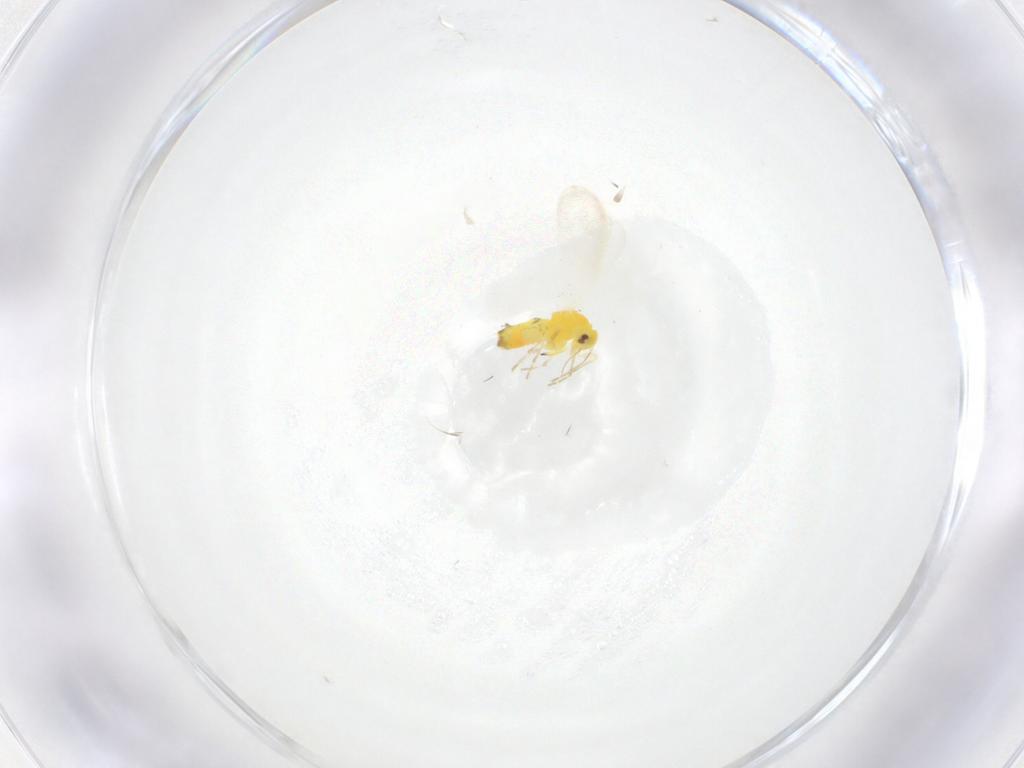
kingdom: Animalia
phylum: Arthropoda
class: Insecta
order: Hemiptera
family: Aleyrodidae
